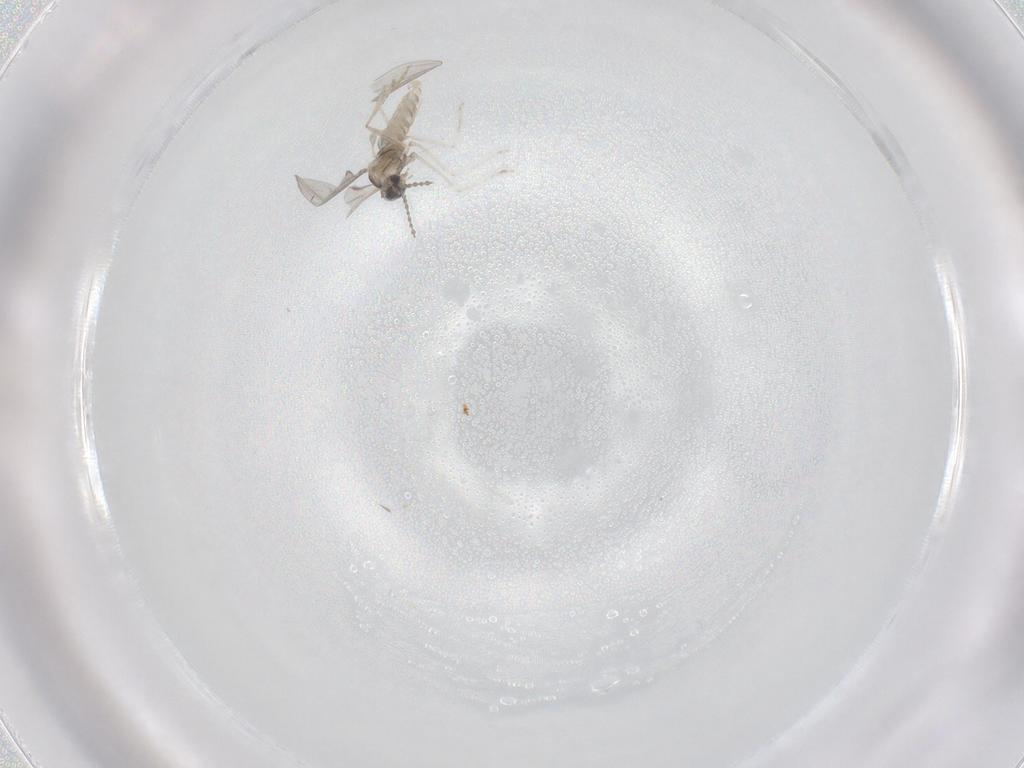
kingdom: Animalia
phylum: Arthropoda
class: Insecta
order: Diptera
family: Cecidomyiidae
